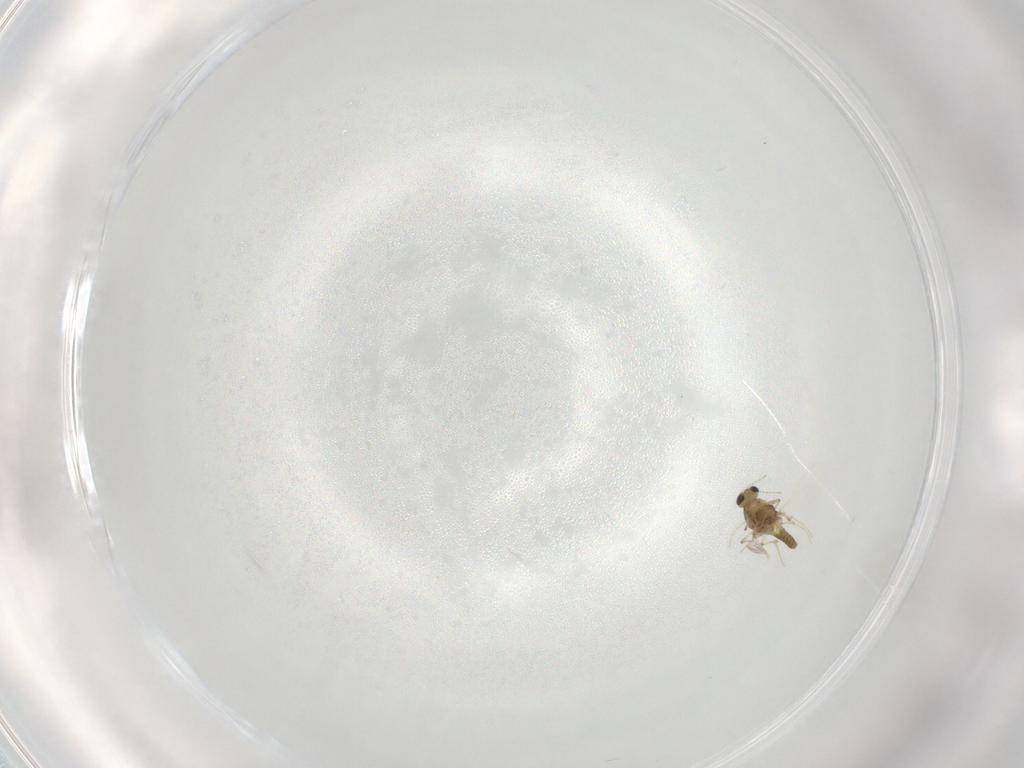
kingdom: Animalia
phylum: Arthropoda
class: Insecta
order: Diptera
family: Chironomidae
